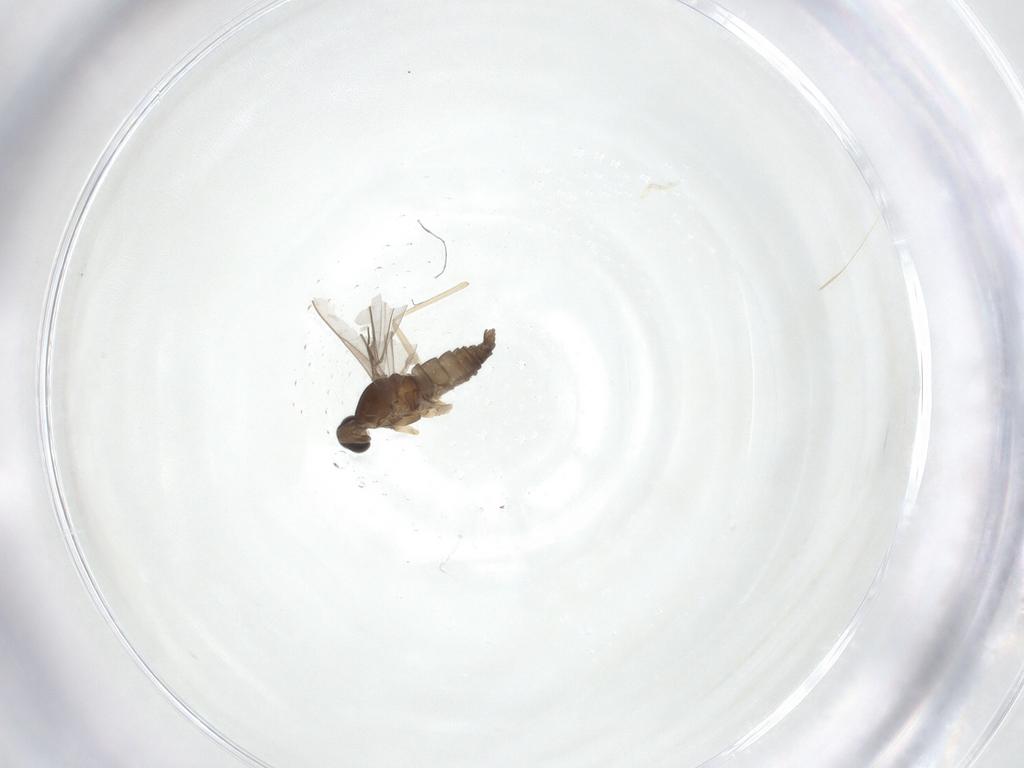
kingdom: Animalia
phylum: Arthropoda
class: Insecta
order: Diptera
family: Cecidomyiidae
